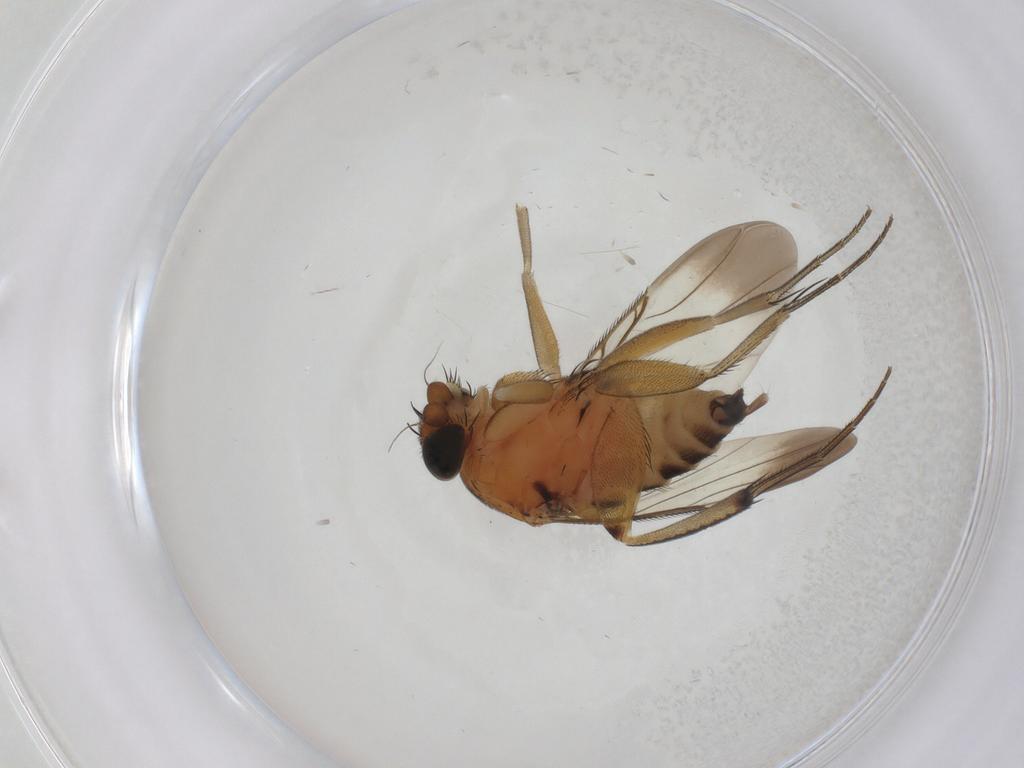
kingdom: Animalia
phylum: Arthropoda
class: Insecta
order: Diptera
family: Phoridae
